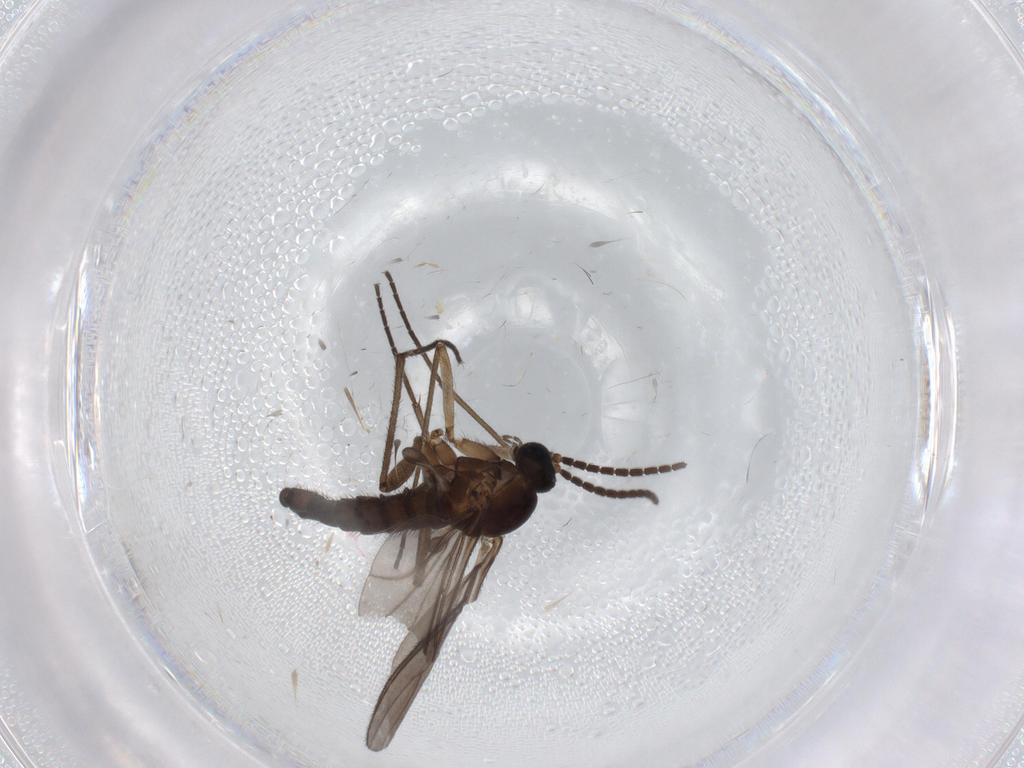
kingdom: Animalia
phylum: Arthropoda
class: Insecta
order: Diptera
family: Sciaridae
